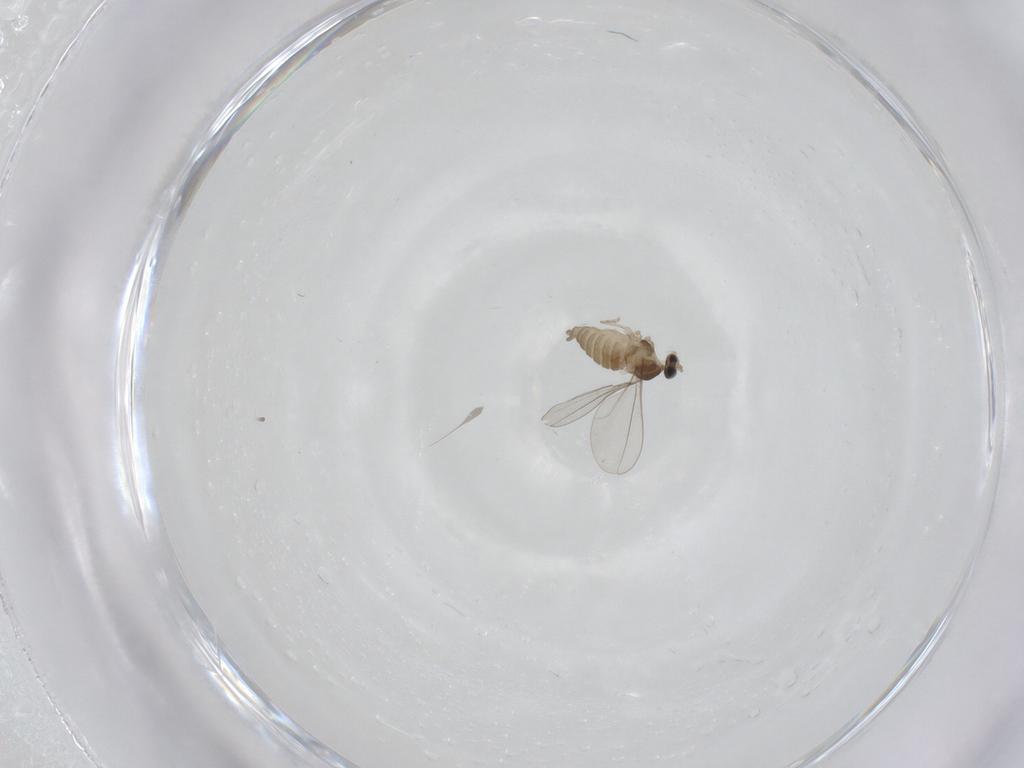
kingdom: Animalia
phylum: Arthropoda
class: Insecta
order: Diptera
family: Cecidomyiidae
